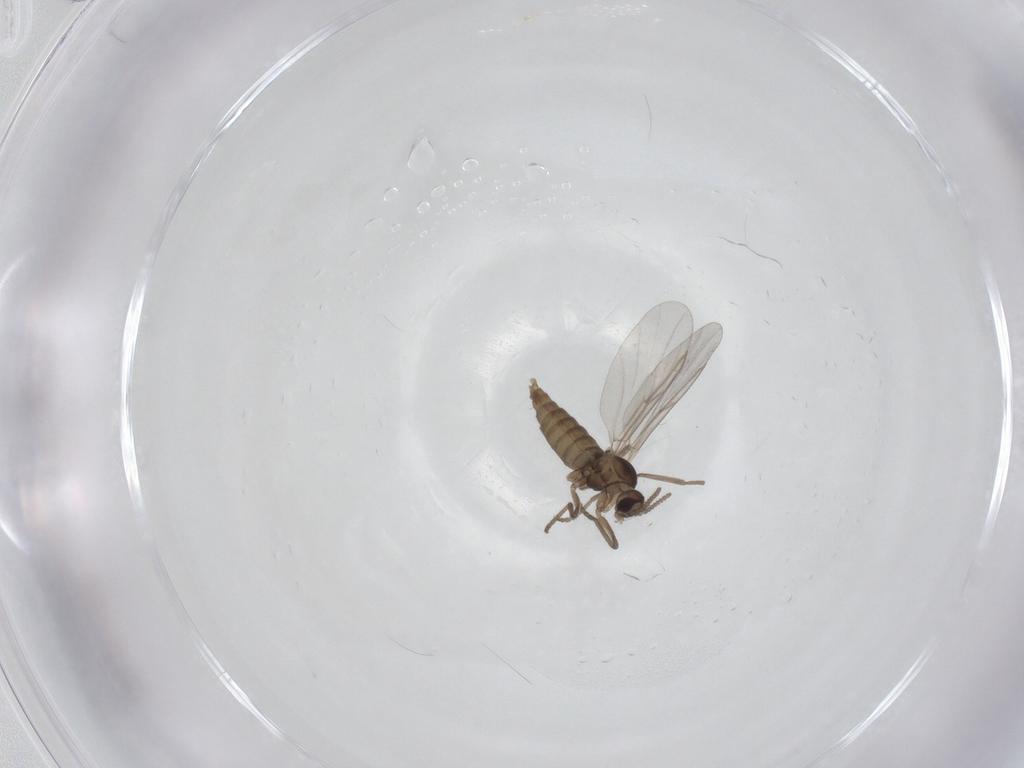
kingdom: Animalia
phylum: Arthropoda
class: Insecta
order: Diptera
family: Cecidomyiidae
